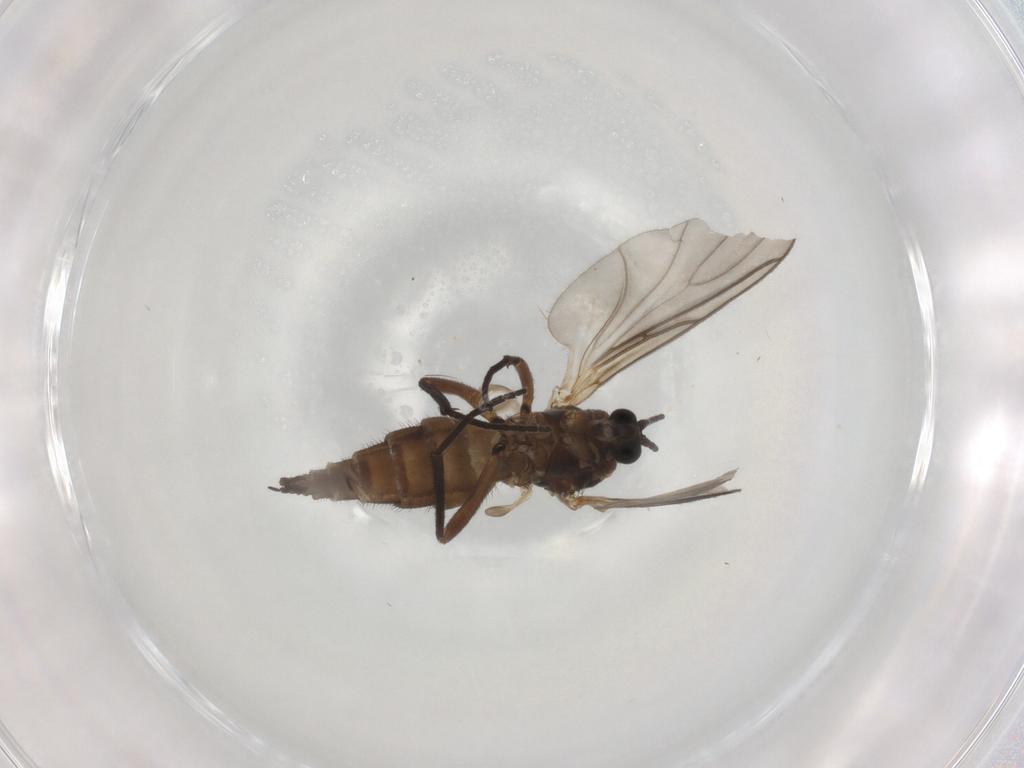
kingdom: Animalia
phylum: Arthropoda
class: Insecta
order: Diptera
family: Sciaridae
